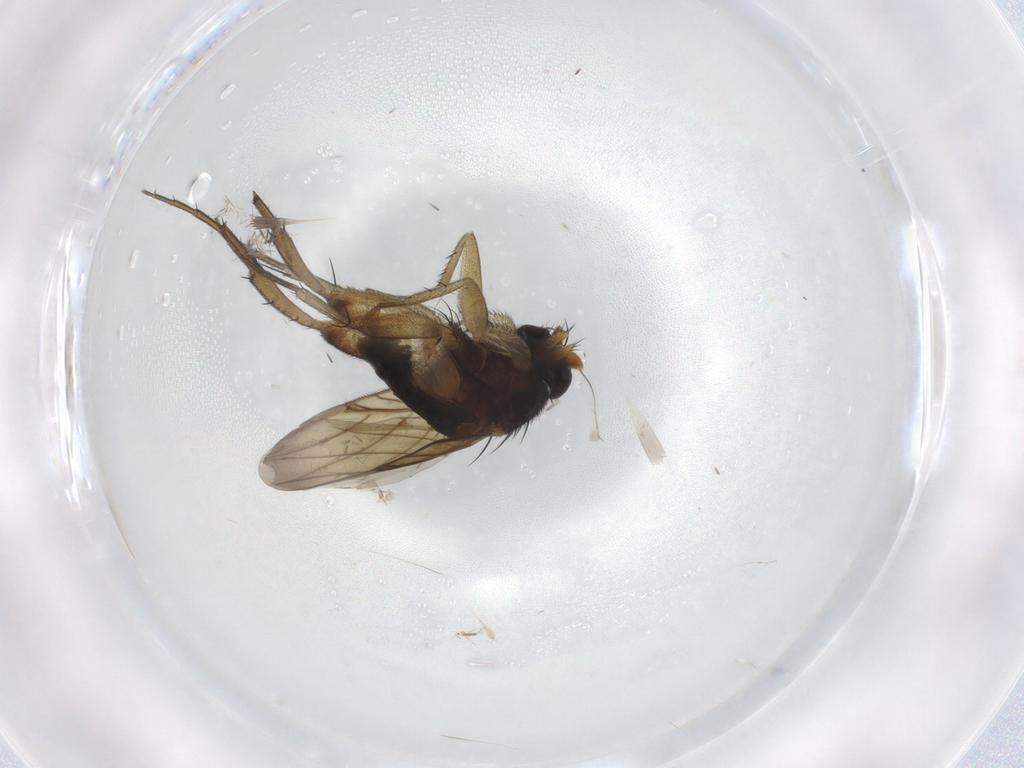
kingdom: Animalia
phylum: Arthropoda
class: Insecta
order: Diptera
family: Phoridae
